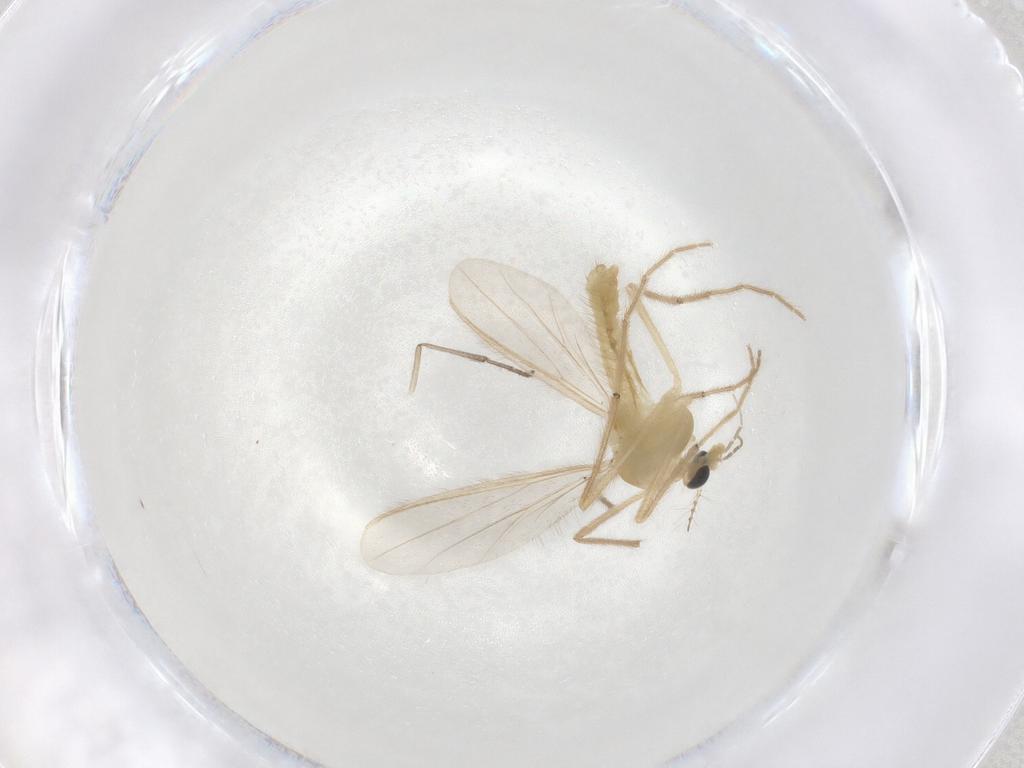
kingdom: Animalia
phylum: Arthropoda
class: Insecta
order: Diptera
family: Chironomidae
